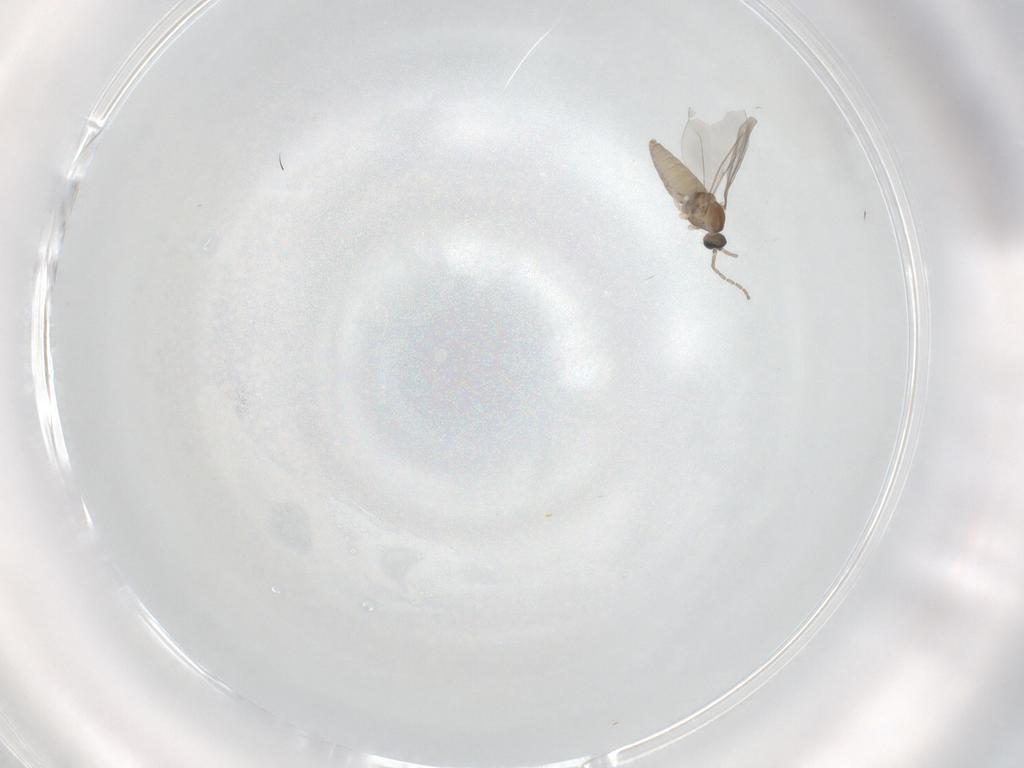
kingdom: Animalia
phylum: Arthropoda
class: Insecta
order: Diptera
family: Cecidomyiidae
